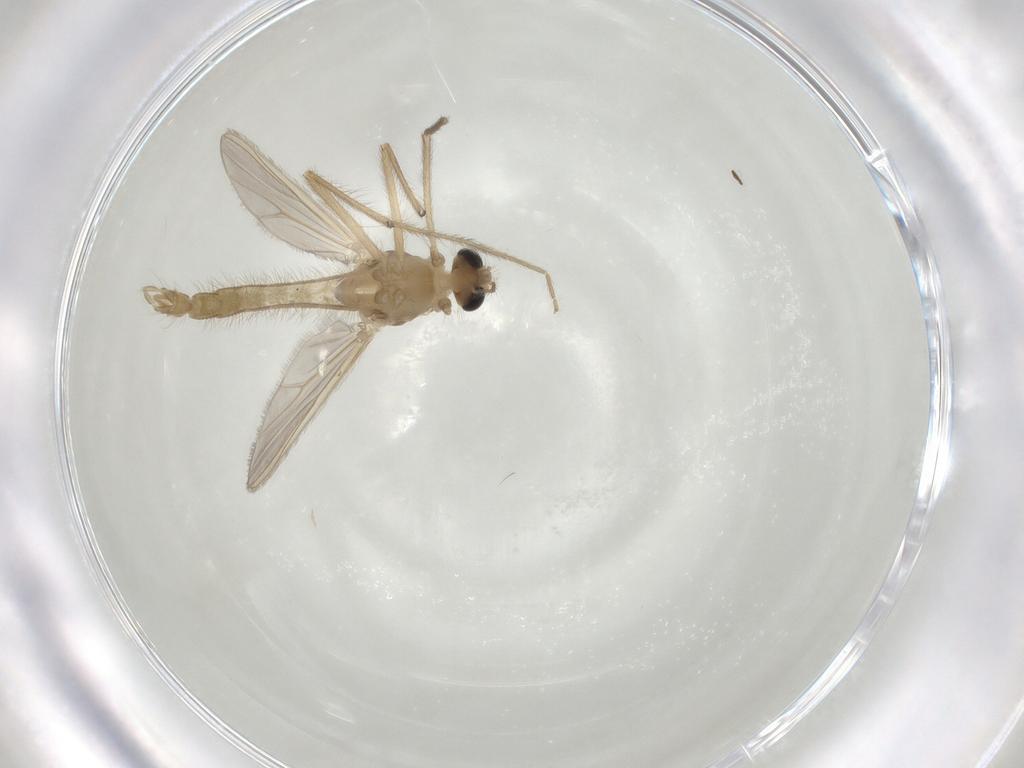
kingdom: Animalia
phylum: Arthropoda
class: Insecta
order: Diptera
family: Chironomidae
